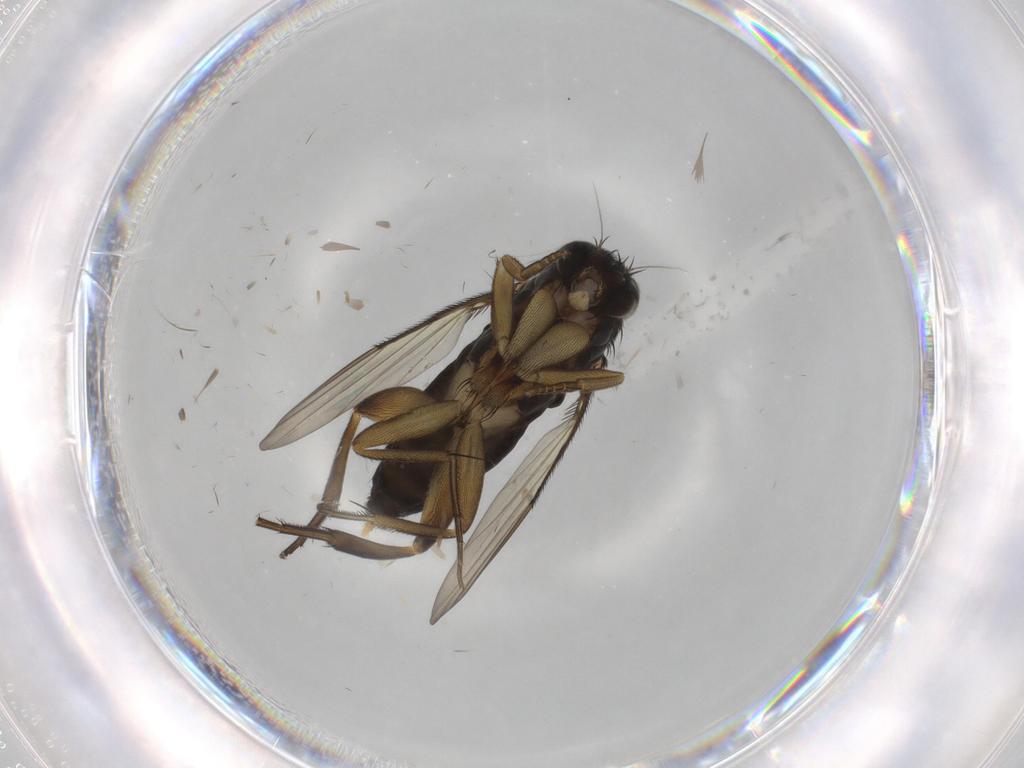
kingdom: Animalia
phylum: Arthropoda
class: Insecta
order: Diptera
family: Phoridae
